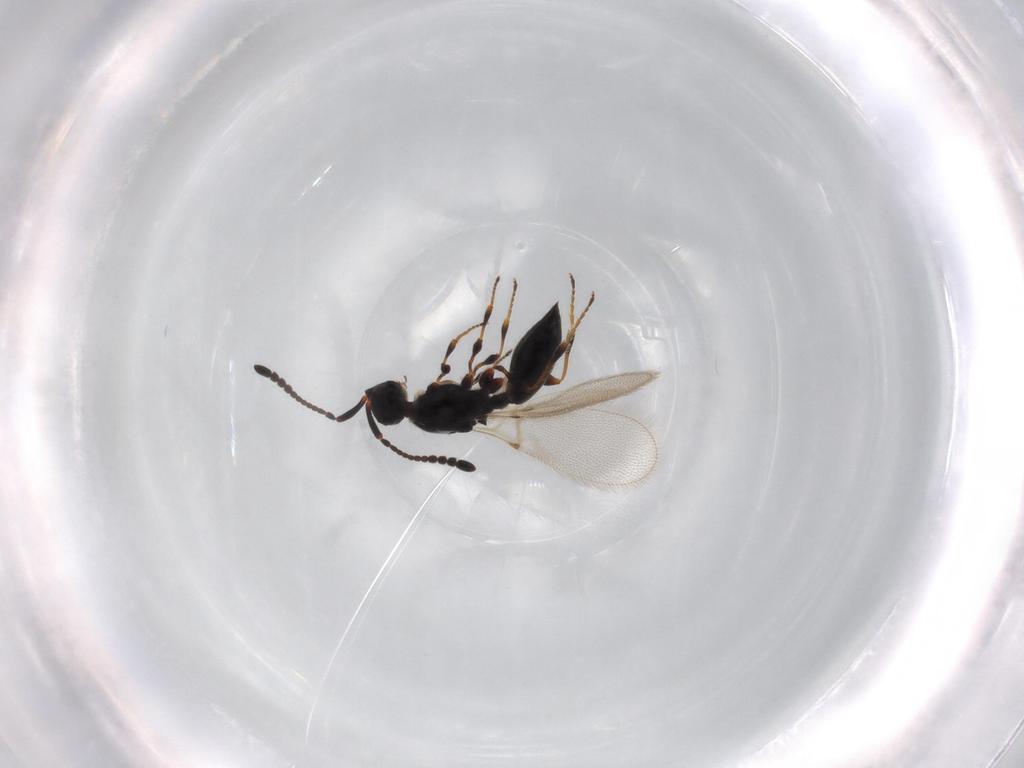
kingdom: Animalia
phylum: Arthropoda
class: Insecta
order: Hymenoptera
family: Diapriidae
